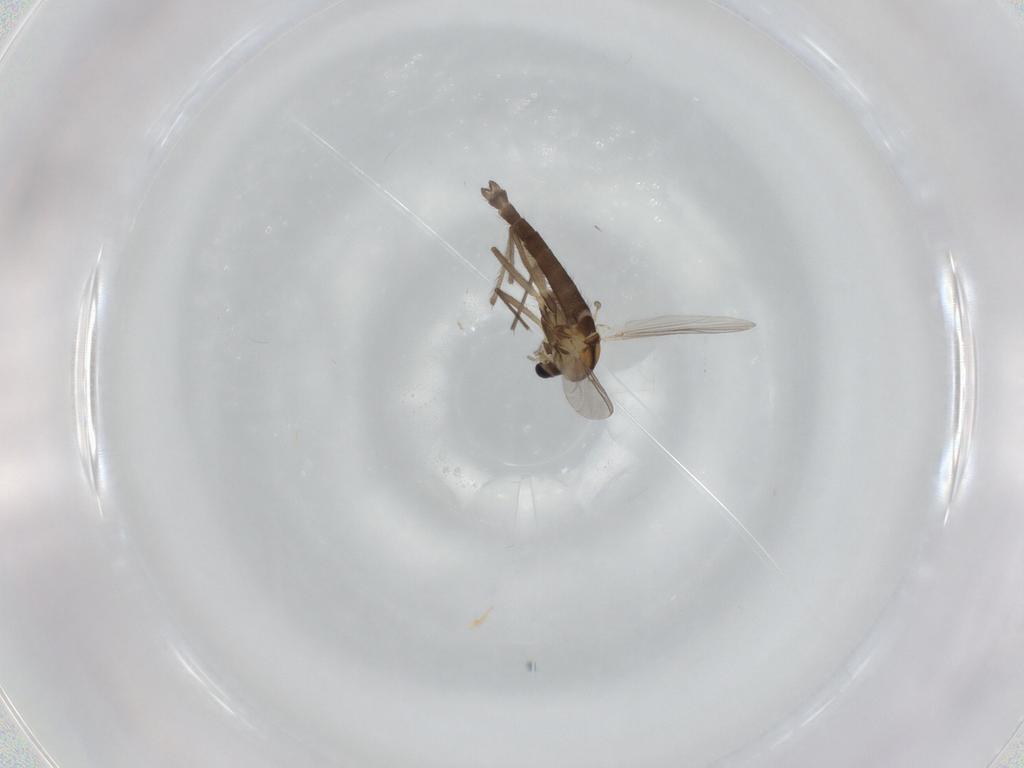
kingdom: Animalia
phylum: Arthropoda
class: Insecta
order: Diptera
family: Chironomidae
